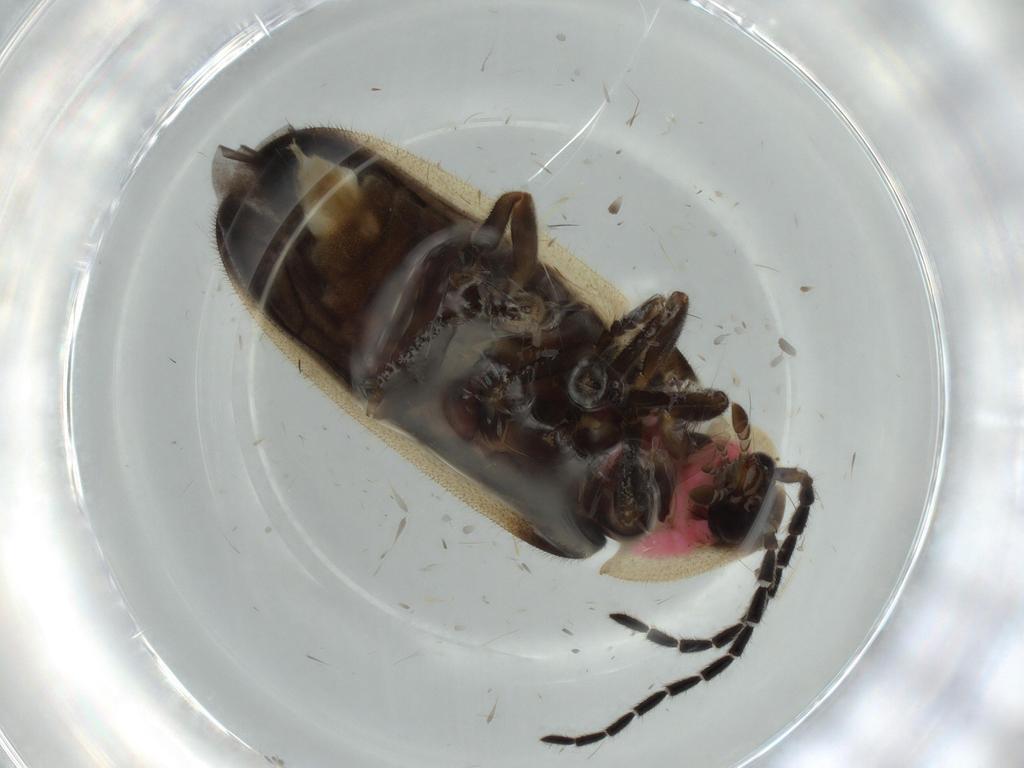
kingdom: Animalia
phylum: Arthropoda
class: Insecta
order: Coleoptera
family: Lampyridae
